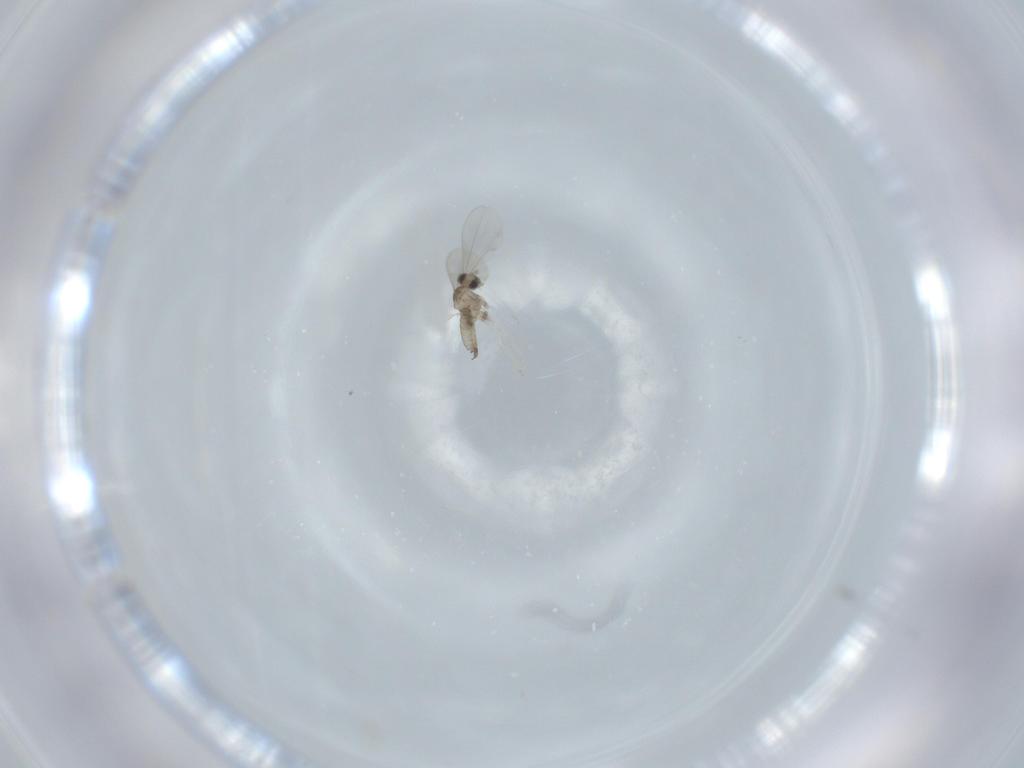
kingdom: Animalia
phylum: Arthropoda
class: Insecta
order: Diptera
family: Cecidomyiidae
